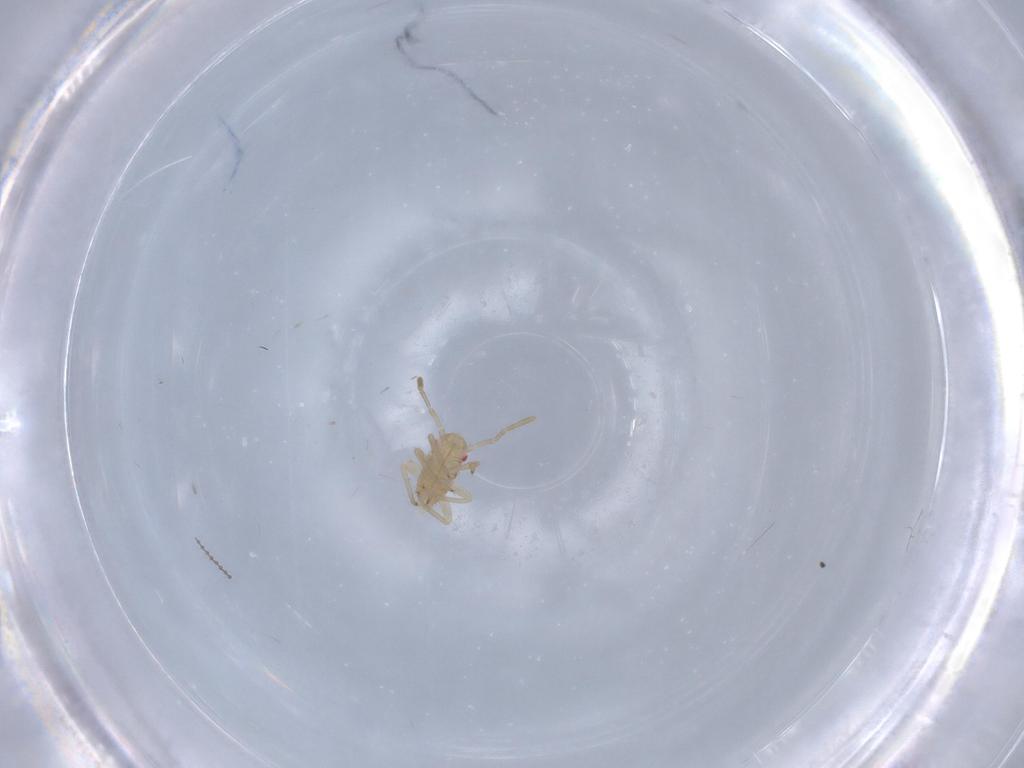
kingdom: Animalia
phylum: Arthropoda
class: Insecta
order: Hemiptera
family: Miridae
